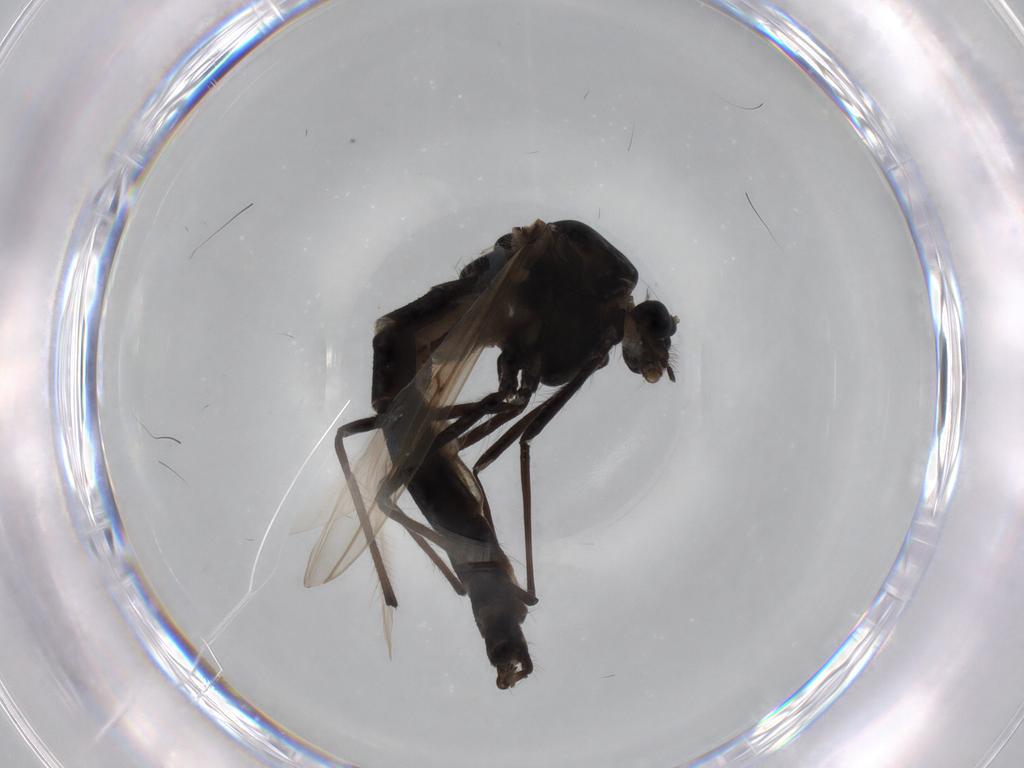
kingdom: Animalia
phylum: Arthropoda
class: Insecta
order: Diptera
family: Chironomidae
